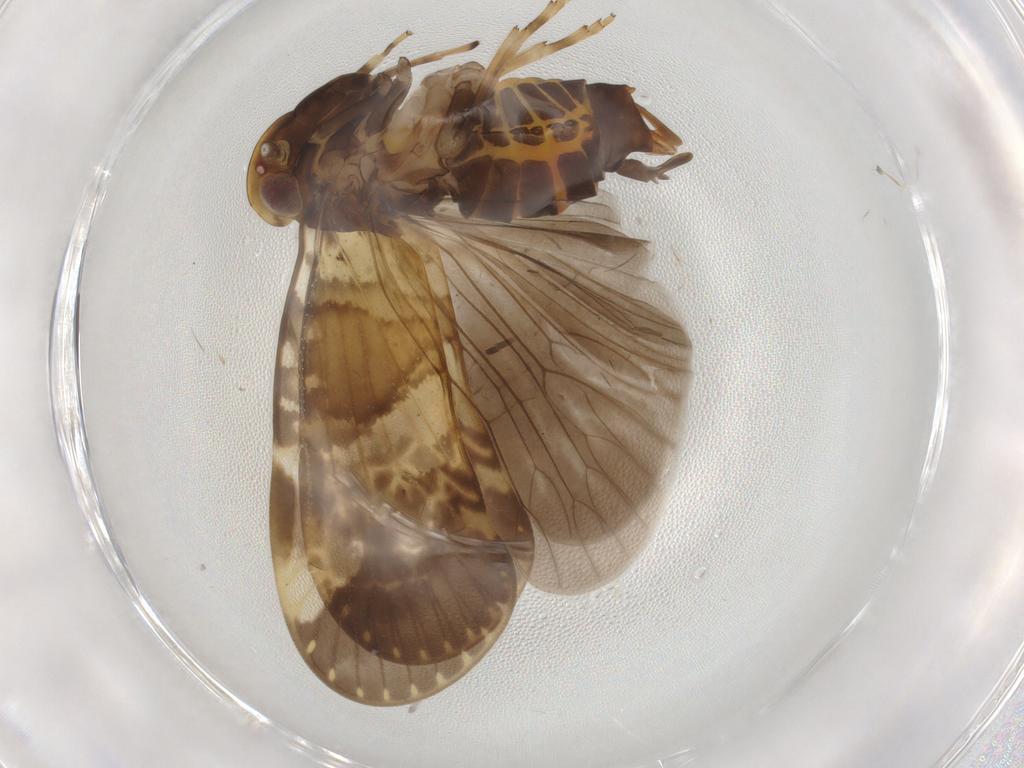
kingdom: Animalia
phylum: Arthropoda
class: Insecta
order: Hemiptera
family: Cixiidae
